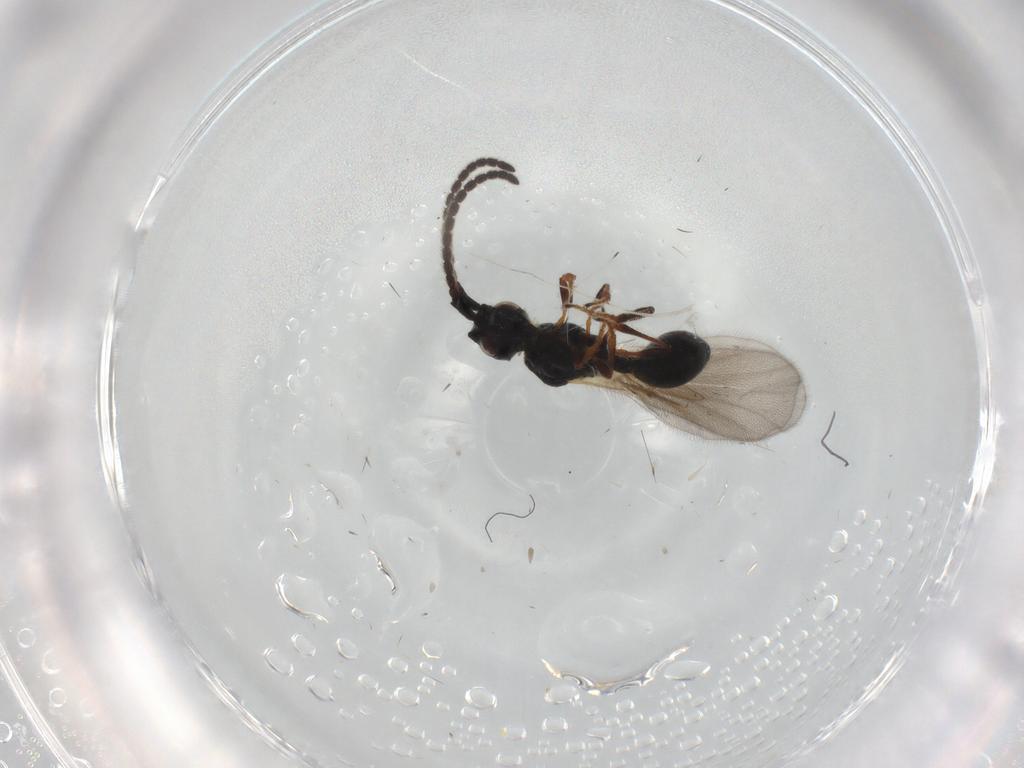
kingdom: Animalia
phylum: Arthropoda
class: Insecta
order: Hymenoptera
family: Diapriidae
